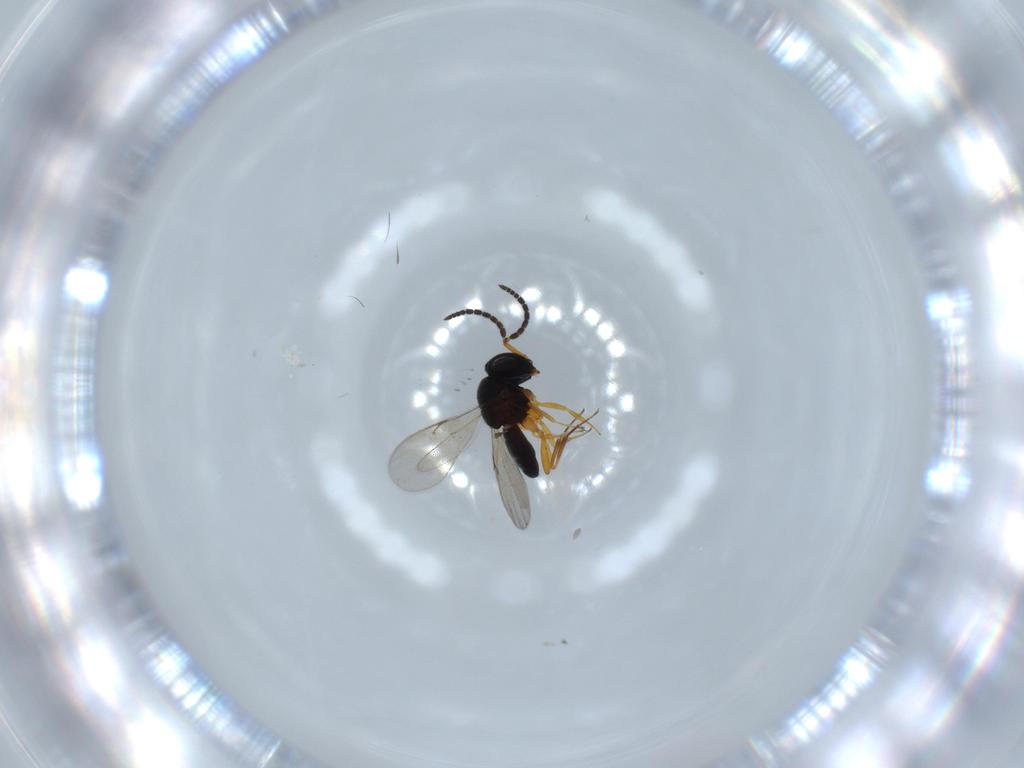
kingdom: Animalia
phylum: Arthropoda
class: Insecta
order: Hymenoptera
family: Scelionidae
